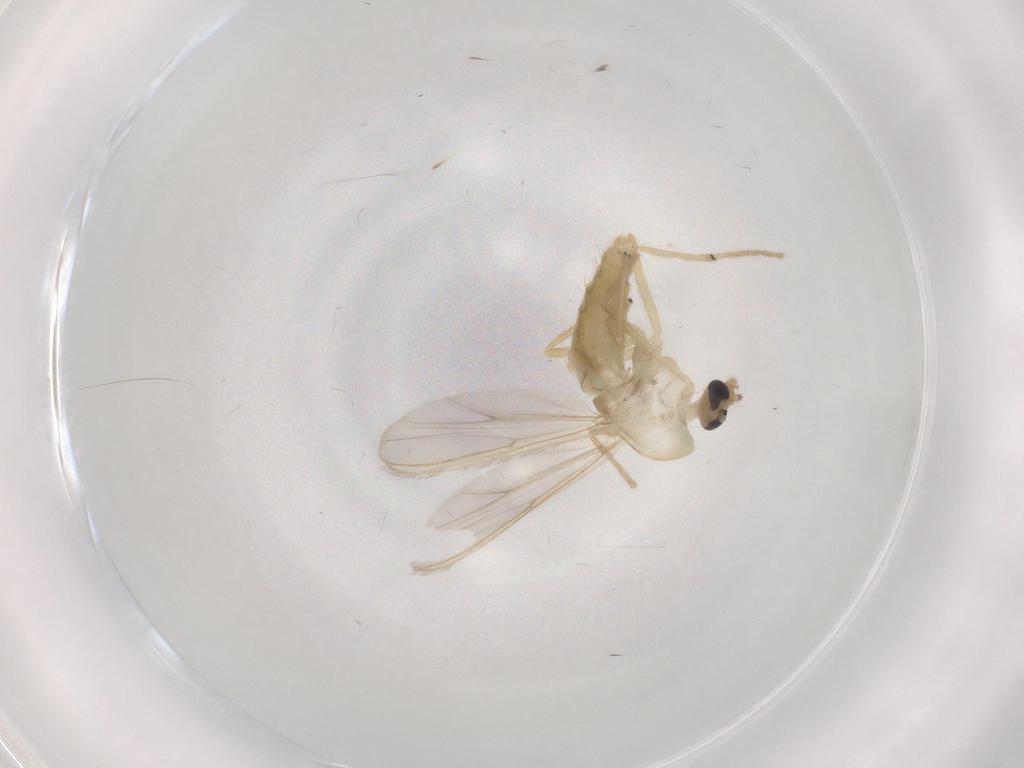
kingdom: Animalia
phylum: Arthropoda
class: Insecta
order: Diptera
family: Chironomidae
